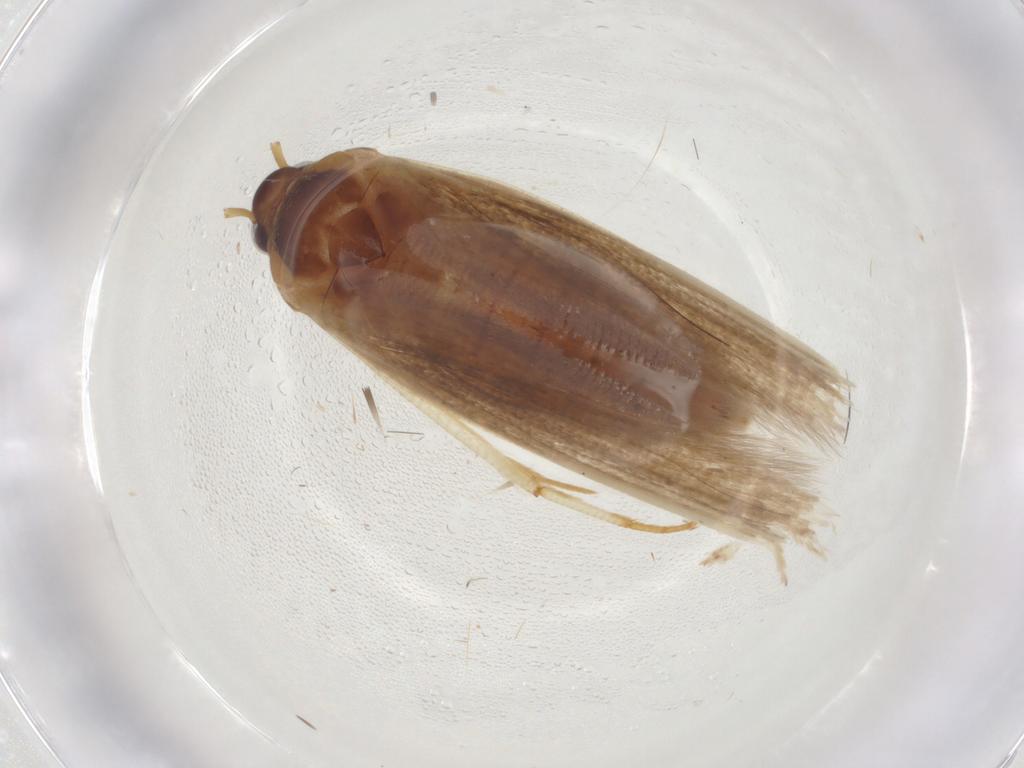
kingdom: Animalia
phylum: Arthropoda
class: Insecta
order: Lepidoptera
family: Blastobasidae
